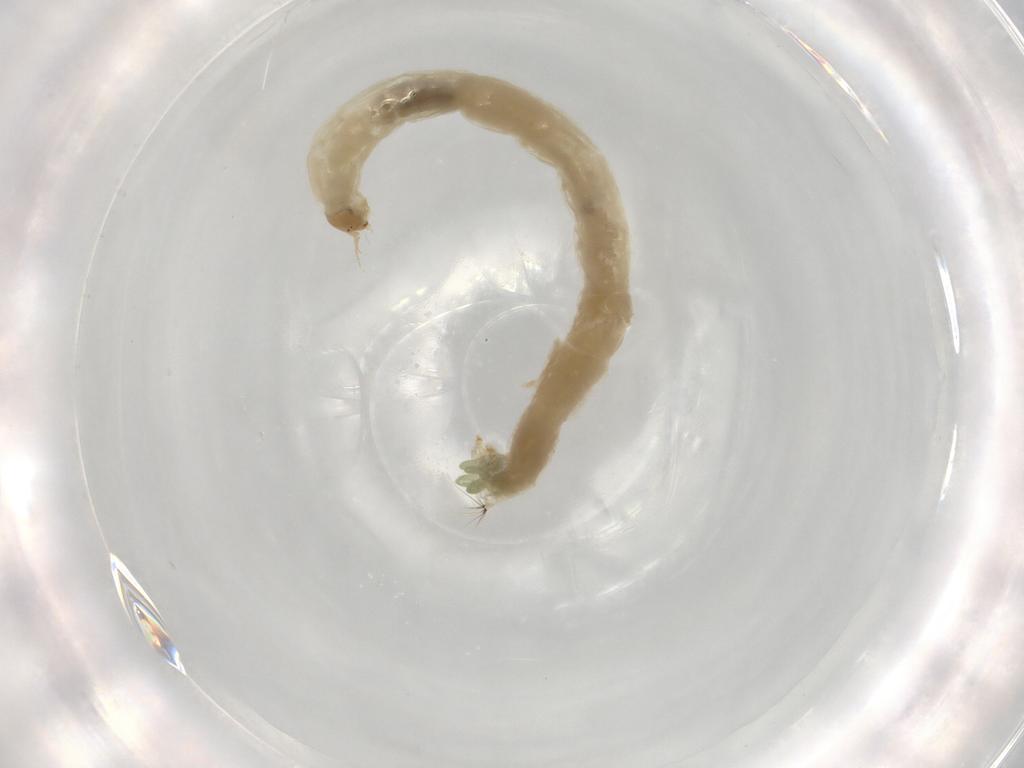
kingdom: Animalia
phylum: Arthropoda
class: Insecta
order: Diptera
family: Chironomidae
